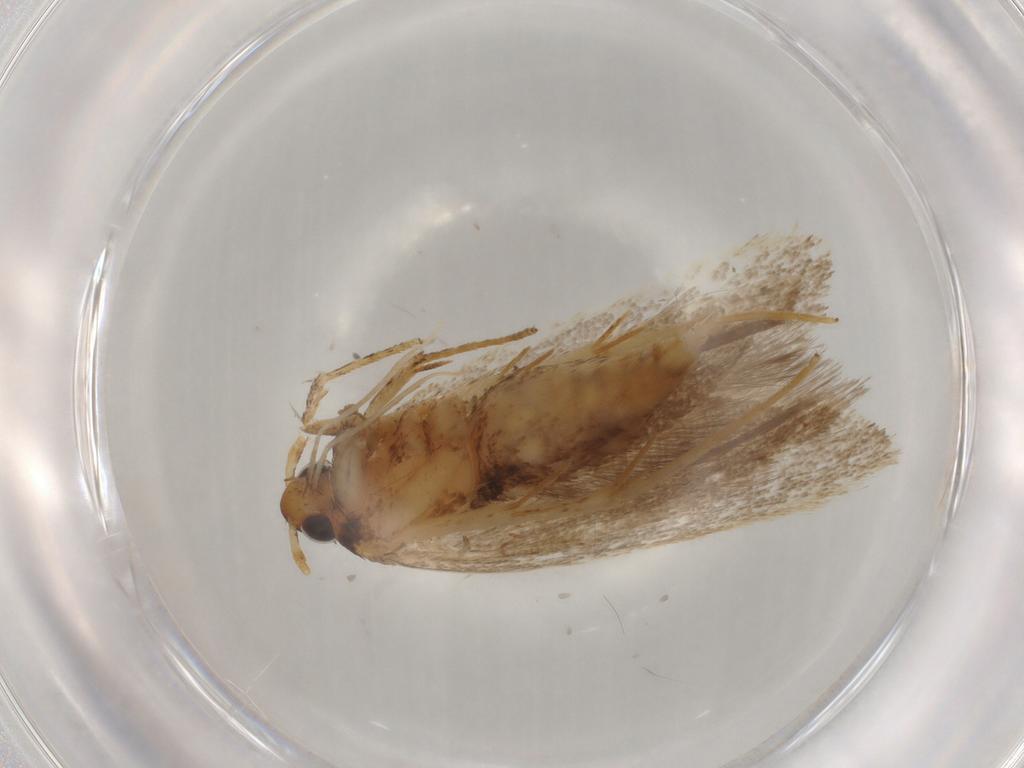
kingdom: Animalia
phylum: Arthropoda
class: Insecta
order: Lepidoptera
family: Lecithoceridae
